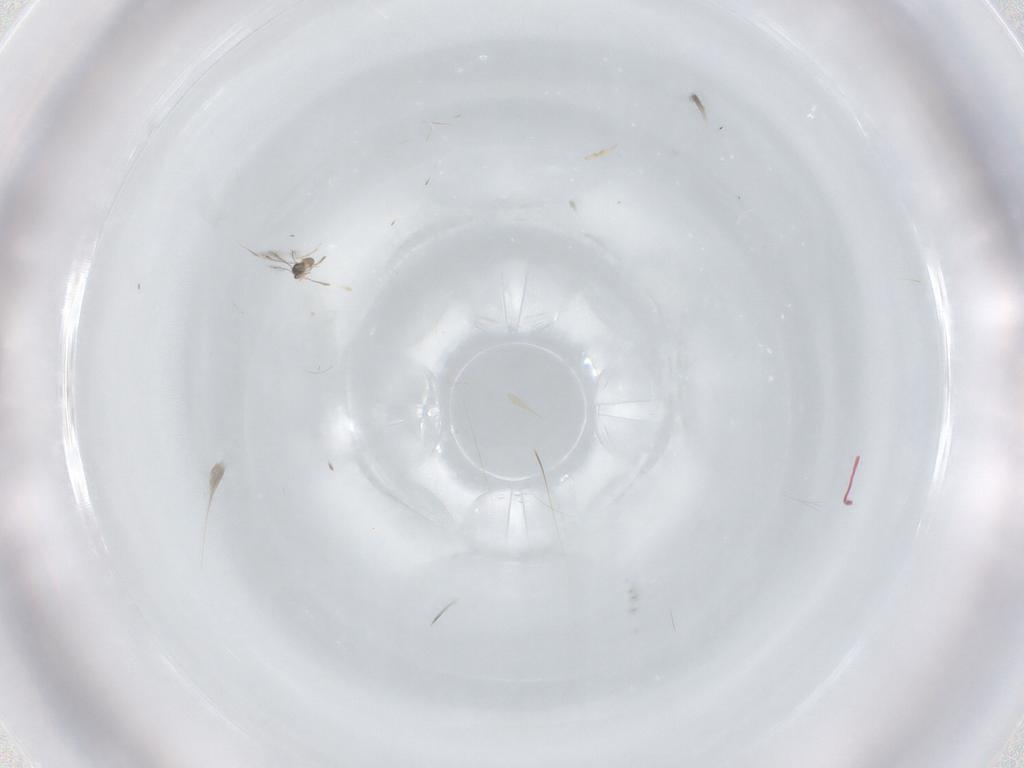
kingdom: Animalia
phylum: Arthropoda
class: Insecta
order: Hymenoptera
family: Mymaridae
